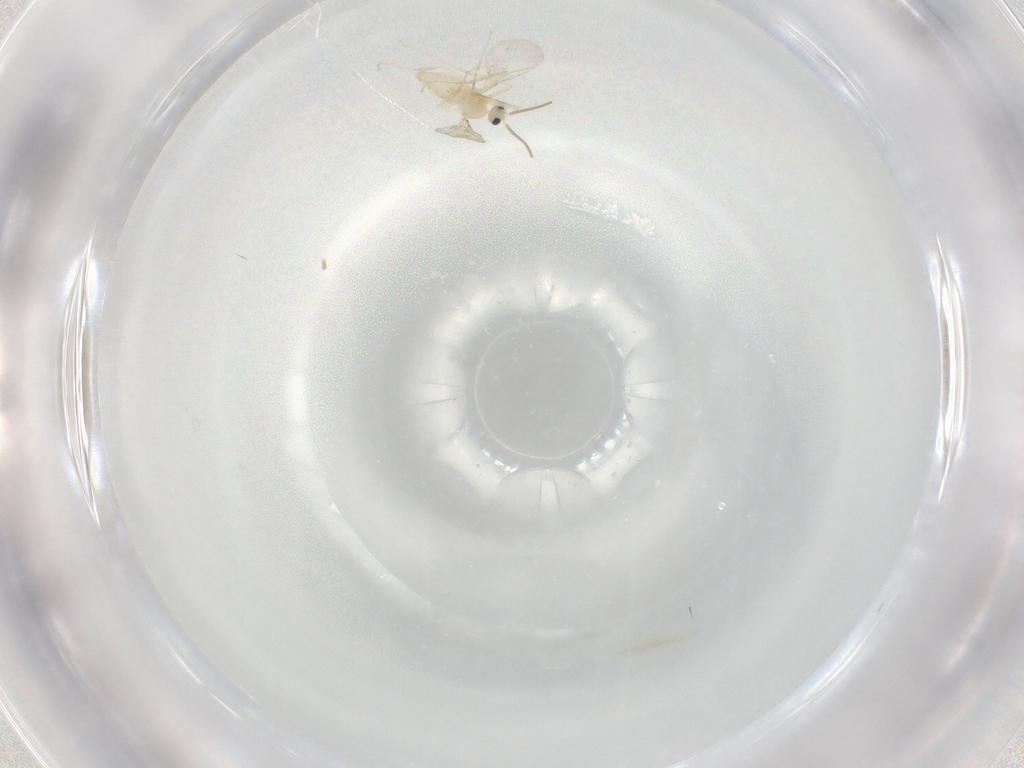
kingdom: Animalia
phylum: Arthropoda
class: Insecta
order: Diptera
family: Cecidomyiidae
